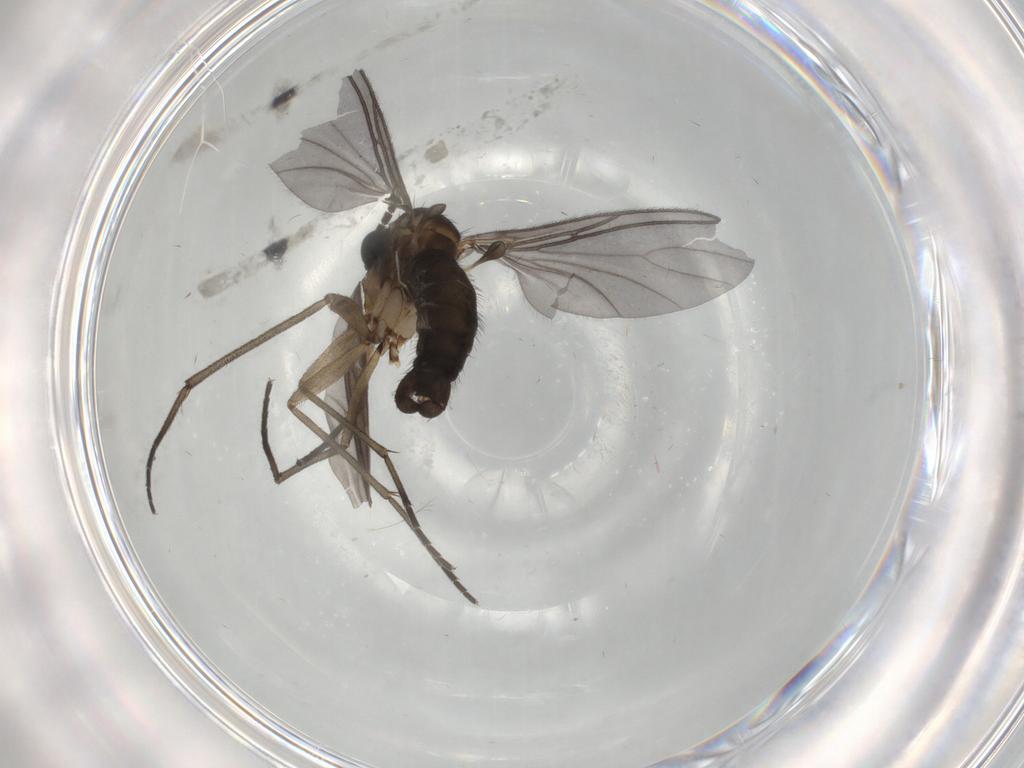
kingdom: Animalia
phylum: Arthropoda
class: Insecta
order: Diptera
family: Sciaridae
